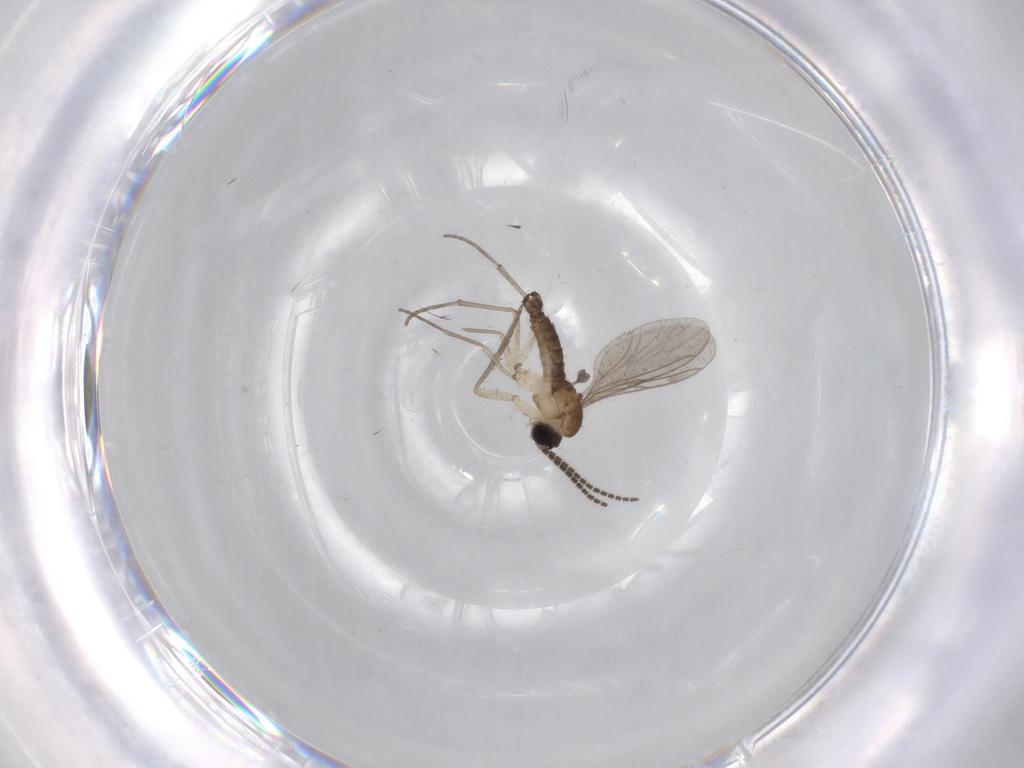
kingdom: Animalia
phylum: Arthropoda
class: Insecta
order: Diptera
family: Sciaridae
